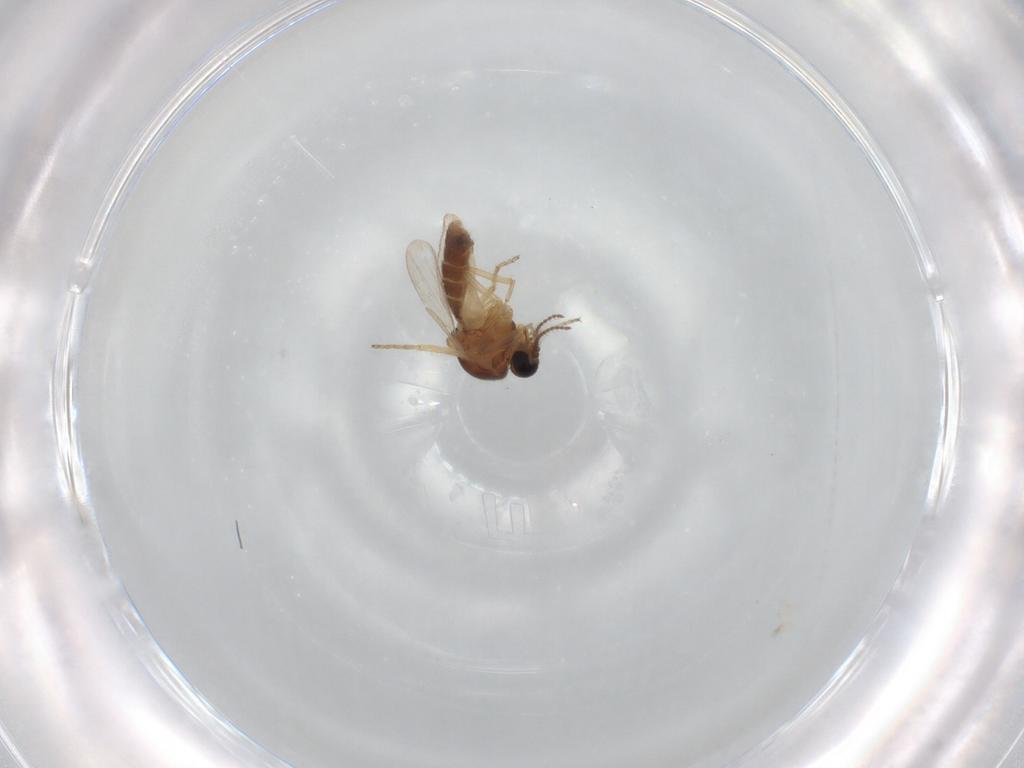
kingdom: Animalia
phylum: Arthropoda
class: Insecta
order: Diptera
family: Ceratopogonidae
